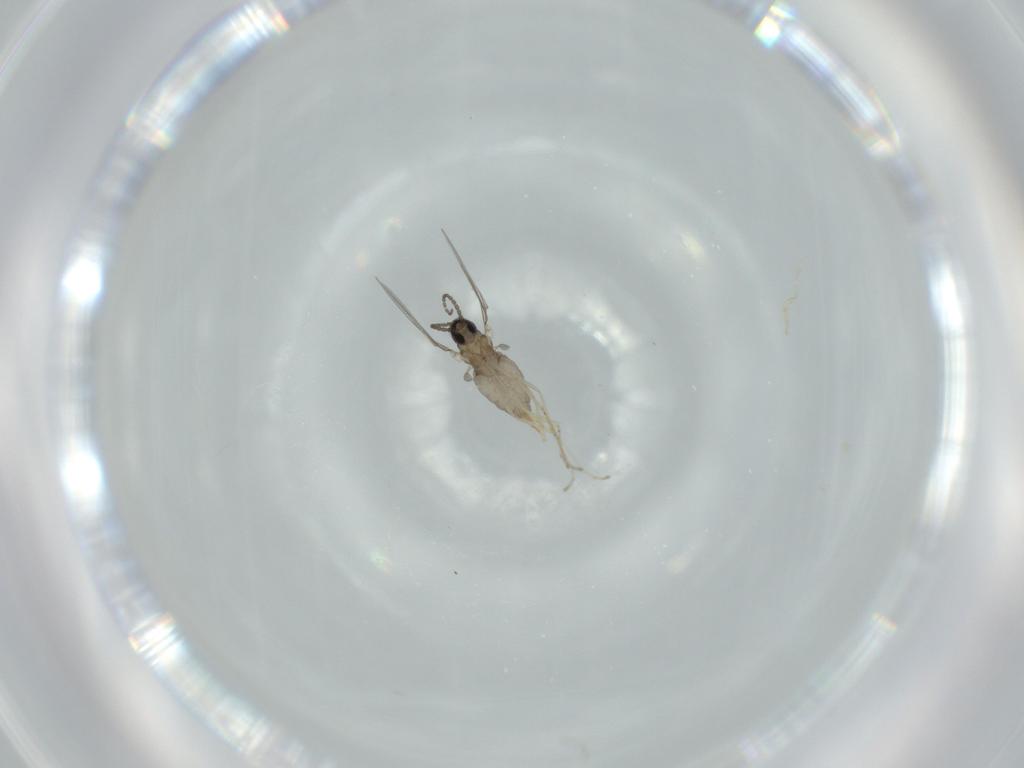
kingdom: Animalia
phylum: Arthropoda
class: Insecta
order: Diptera
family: Cecidomyiidae
